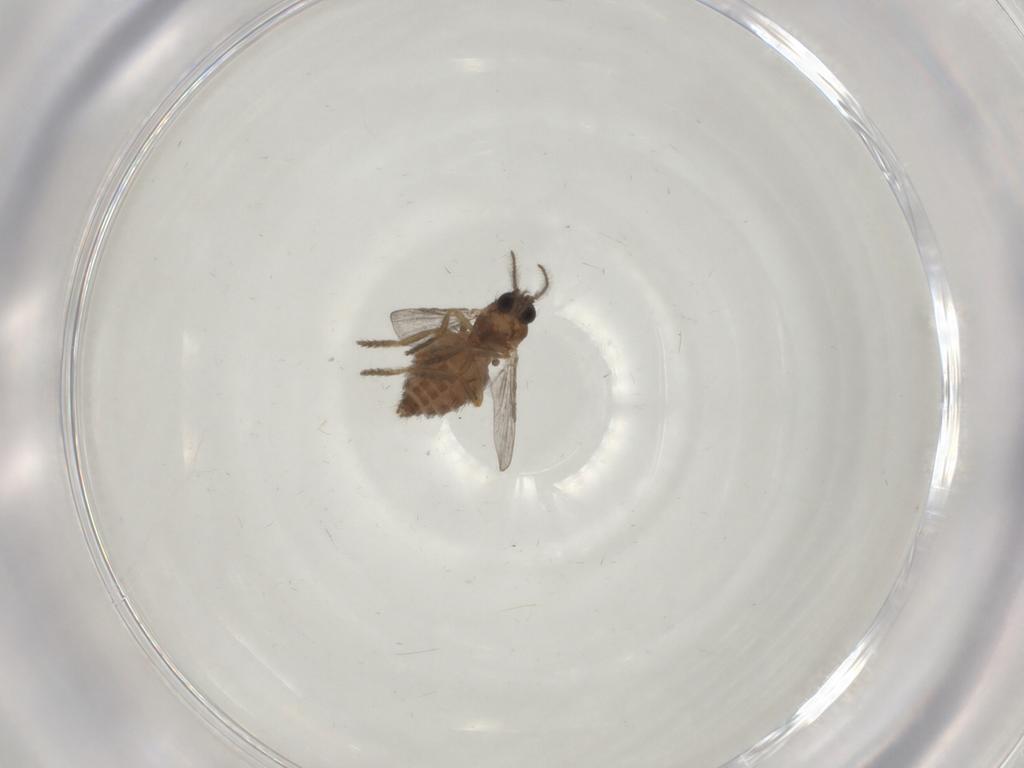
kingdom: Animalia
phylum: Arthropoda
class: Insecta
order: Diptera
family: Ceratopogonidae
